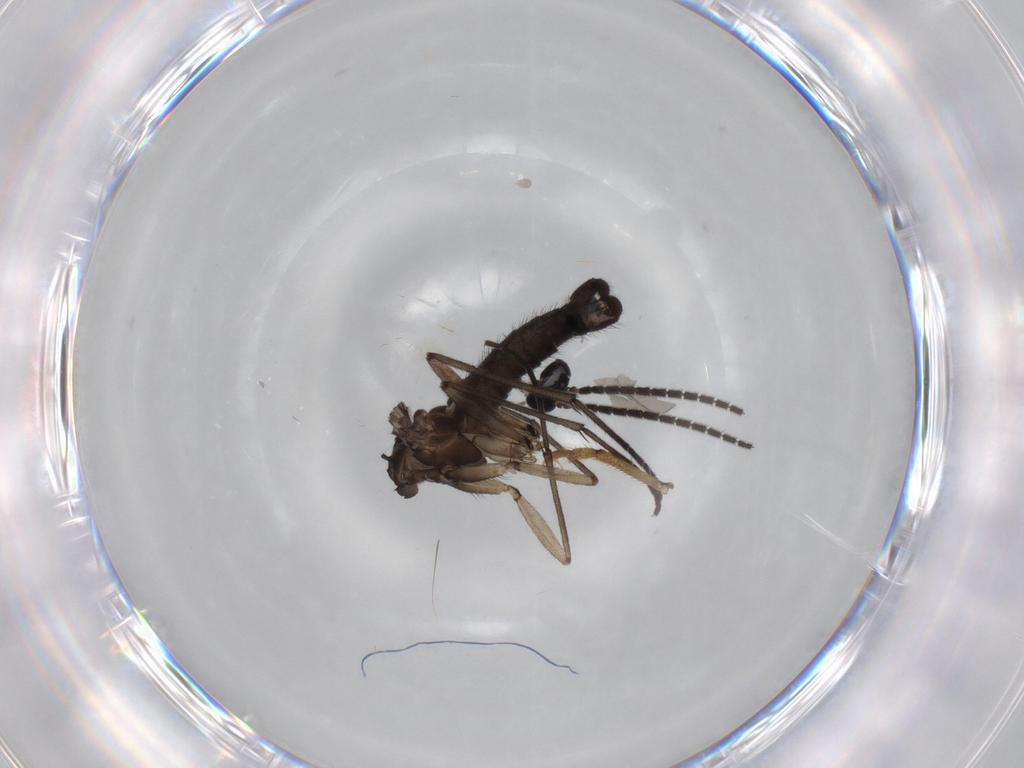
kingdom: Animalia
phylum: Arthropoda
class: Insecta
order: Diptera
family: Sciaridae
